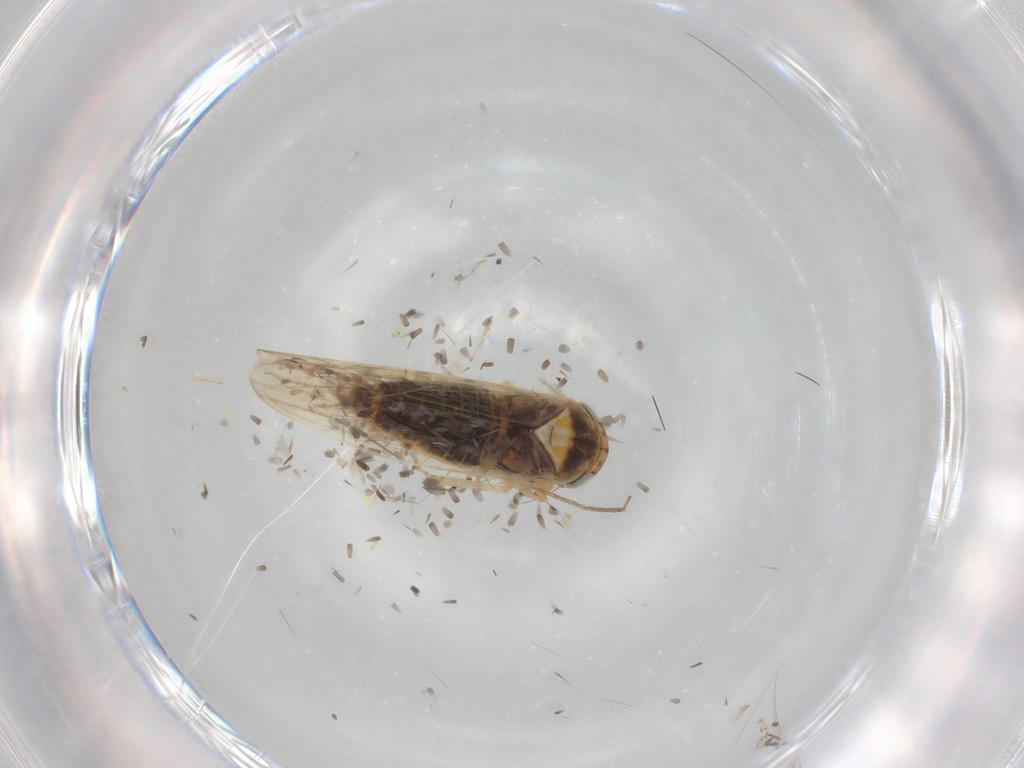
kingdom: Animalia
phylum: Arthropoda
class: Insecta
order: Hemiptera
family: Cicadellidae
